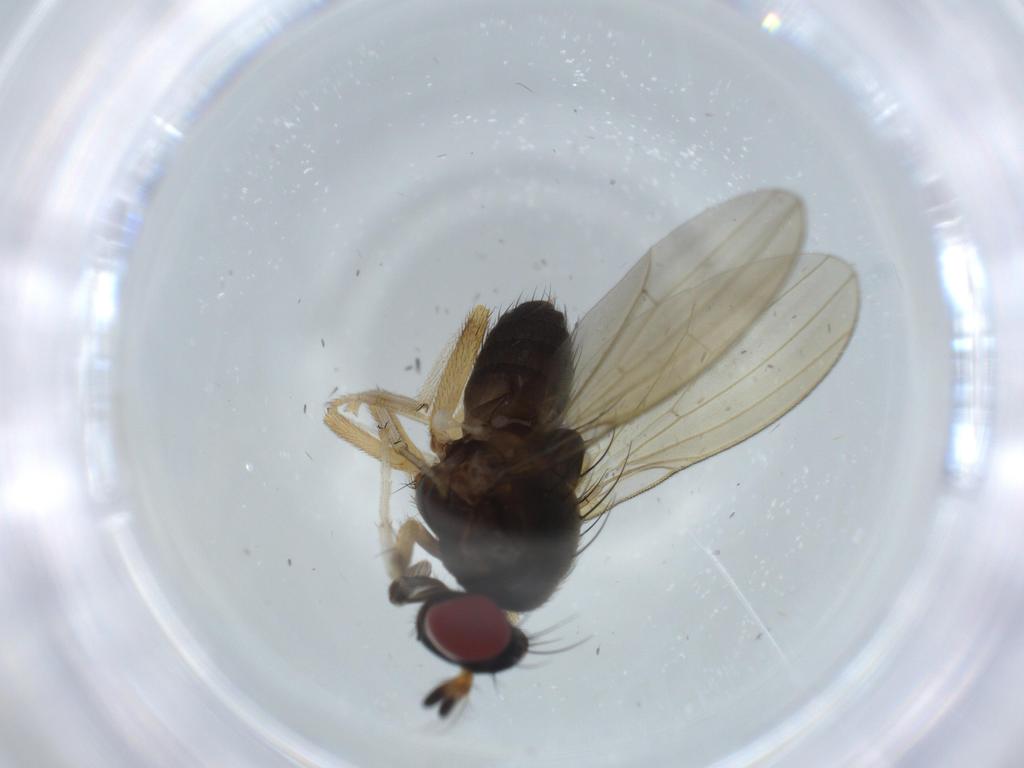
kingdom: Animalia
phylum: Arthropoda
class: Insecta
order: Diptera
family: Cecidomyiidae
